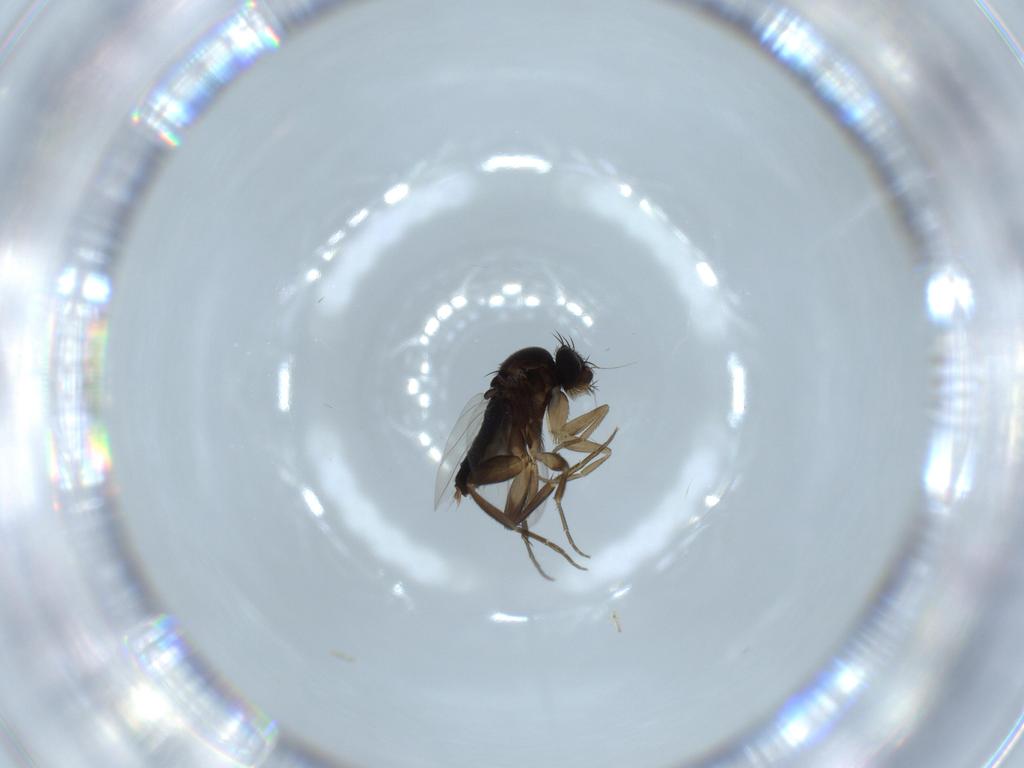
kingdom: Animalia
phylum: Arthropoda
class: Insecta
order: Diptera
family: Phoridae
